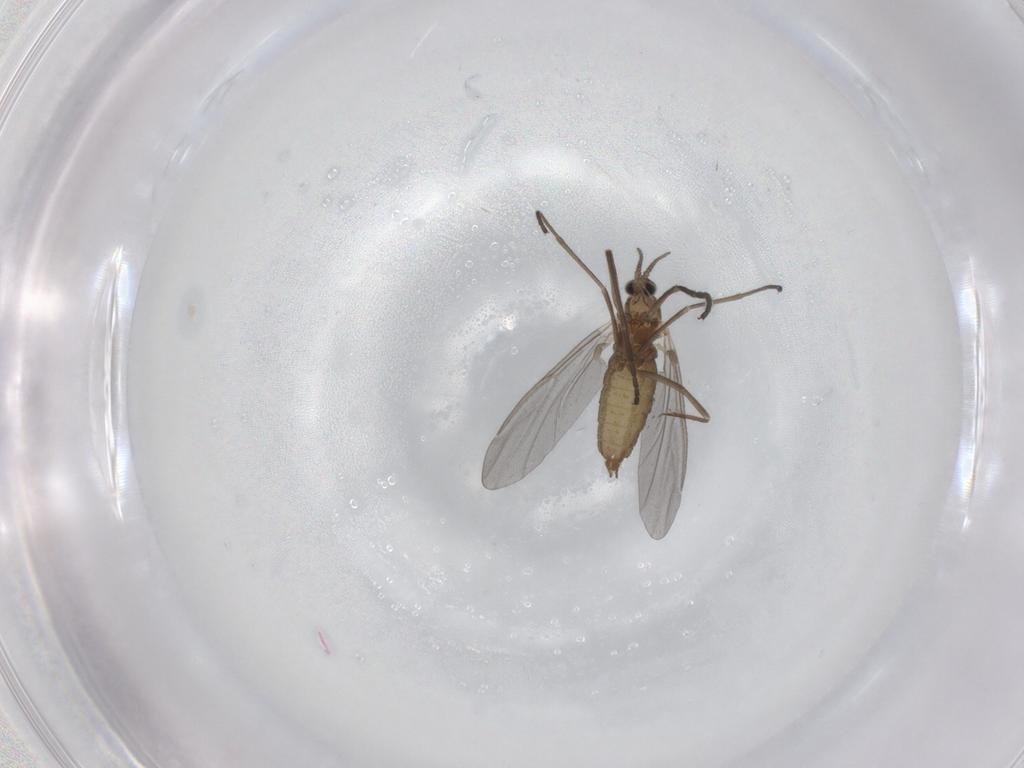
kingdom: Animalia
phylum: Arthropoda
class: Insecta
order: Diptera
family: Cecidomyiidae
